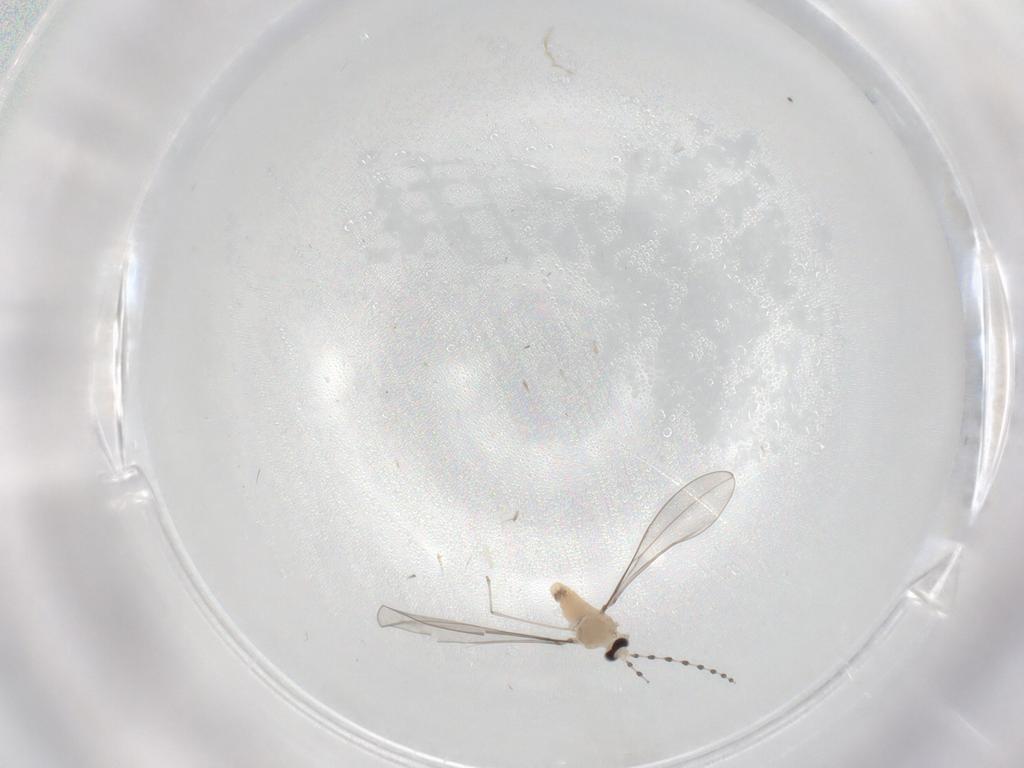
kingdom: Animalia
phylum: Arthropoda
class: Insecta
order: Diptera
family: Cecidomyiidae
